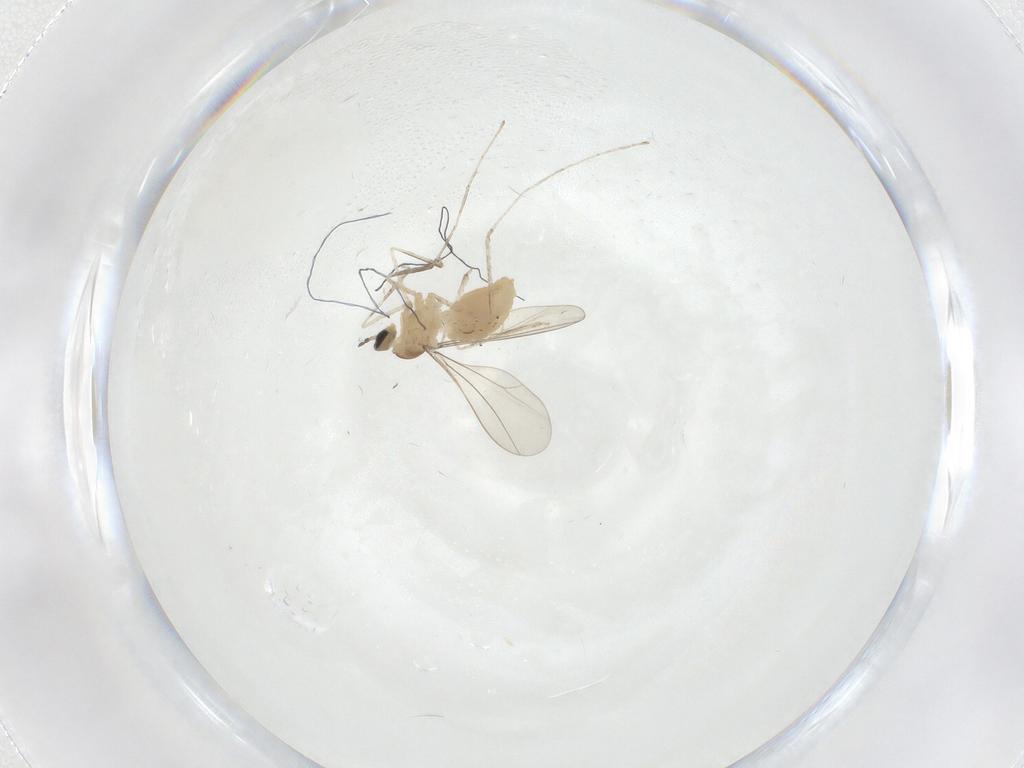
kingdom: Animalia
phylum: Arthropoda
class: Insecta
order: Diptera
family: Cecidomyiidae
